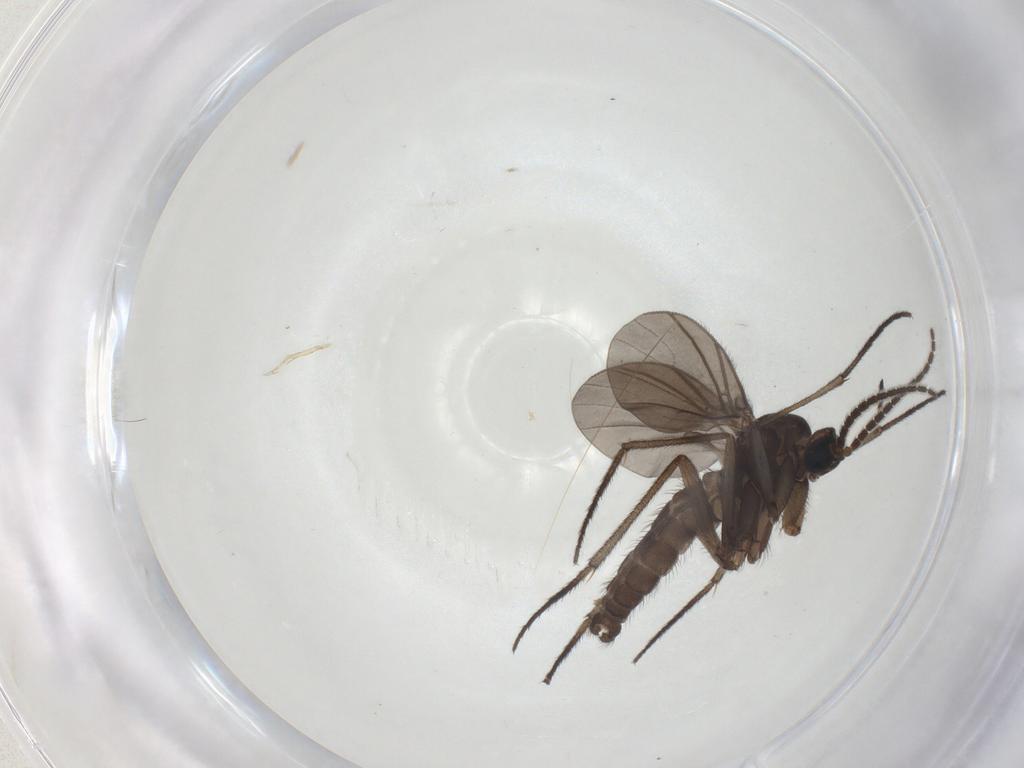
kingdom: Animalia
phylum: Arthropoda
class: Insecta
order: Diptera
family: Sciaridae
